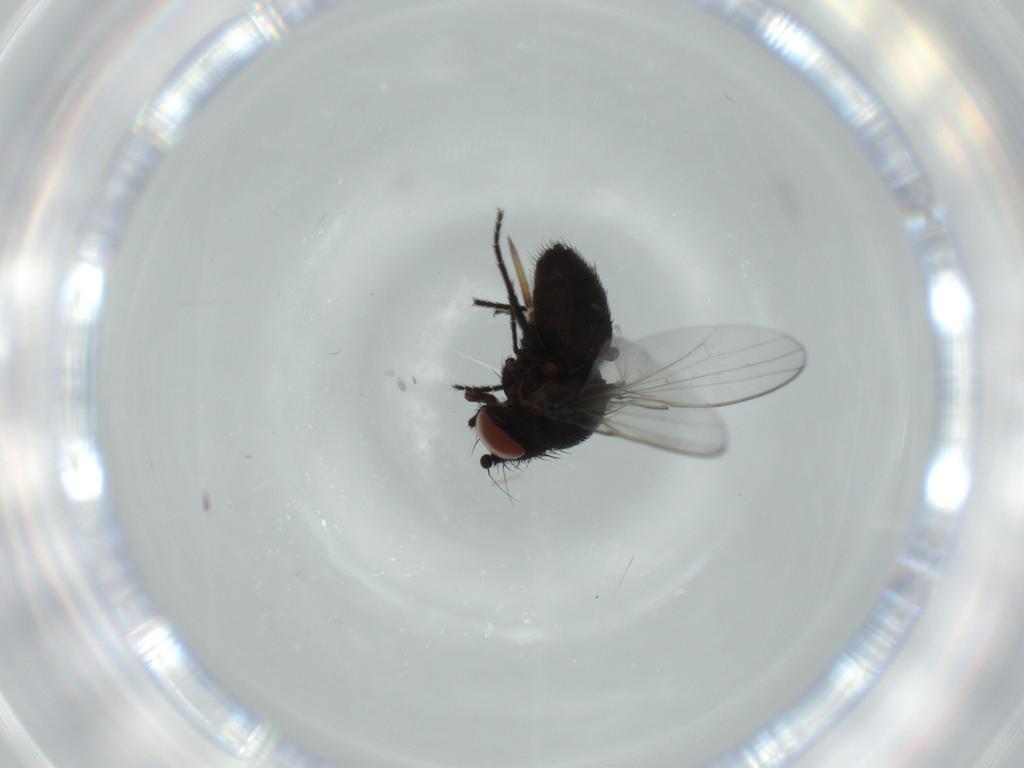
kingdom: Animalia
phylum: Arthropoda
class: Insecta
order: Diptera
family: Milichiidae
